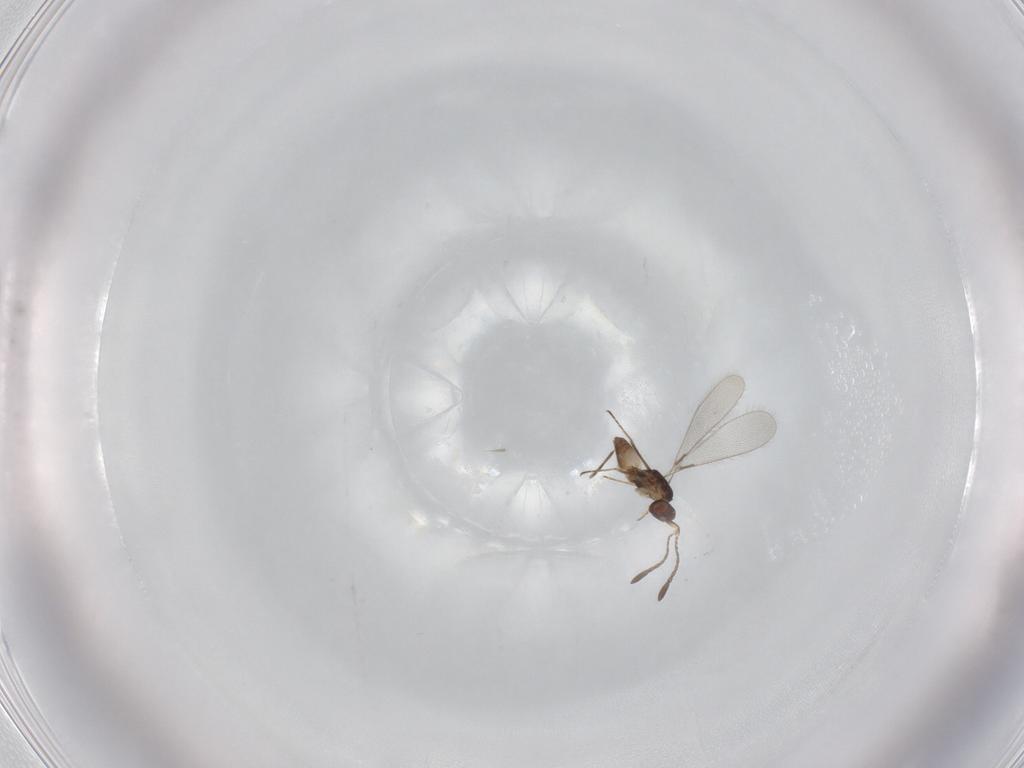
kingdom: Animalia
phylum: Arthropoda
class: Insecta
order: Hymenoptera
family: Mymaridae
